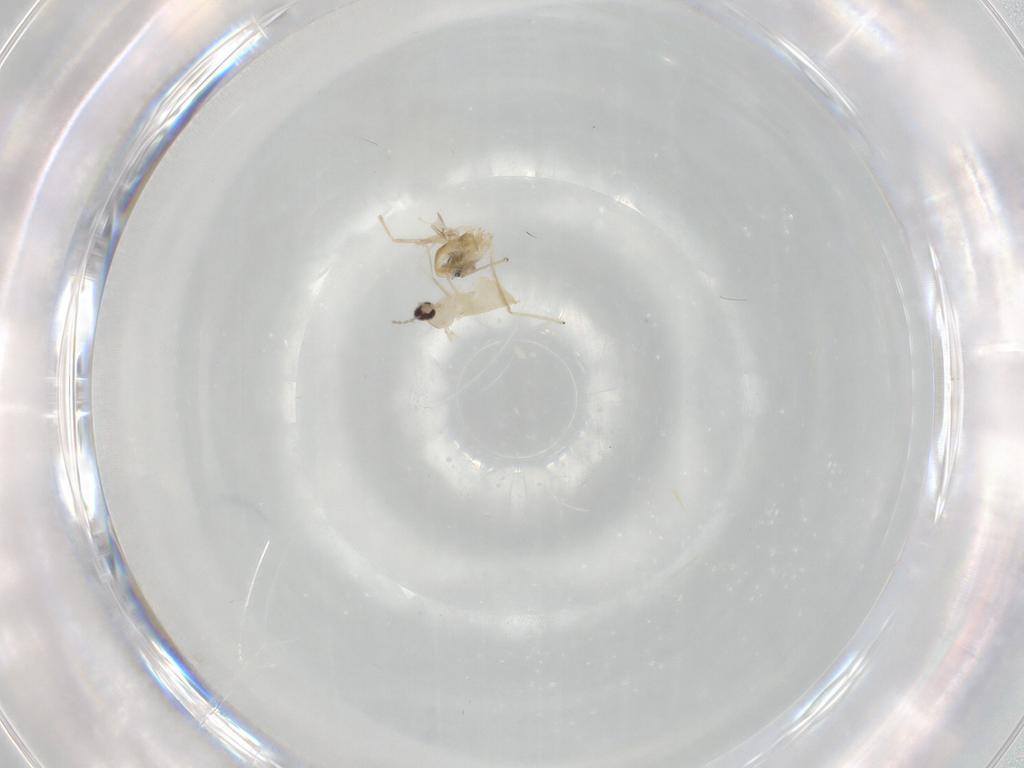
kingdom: Animalia
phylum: Arthropoda
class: Insecta
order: Diptera
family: Cecidomyiidae
